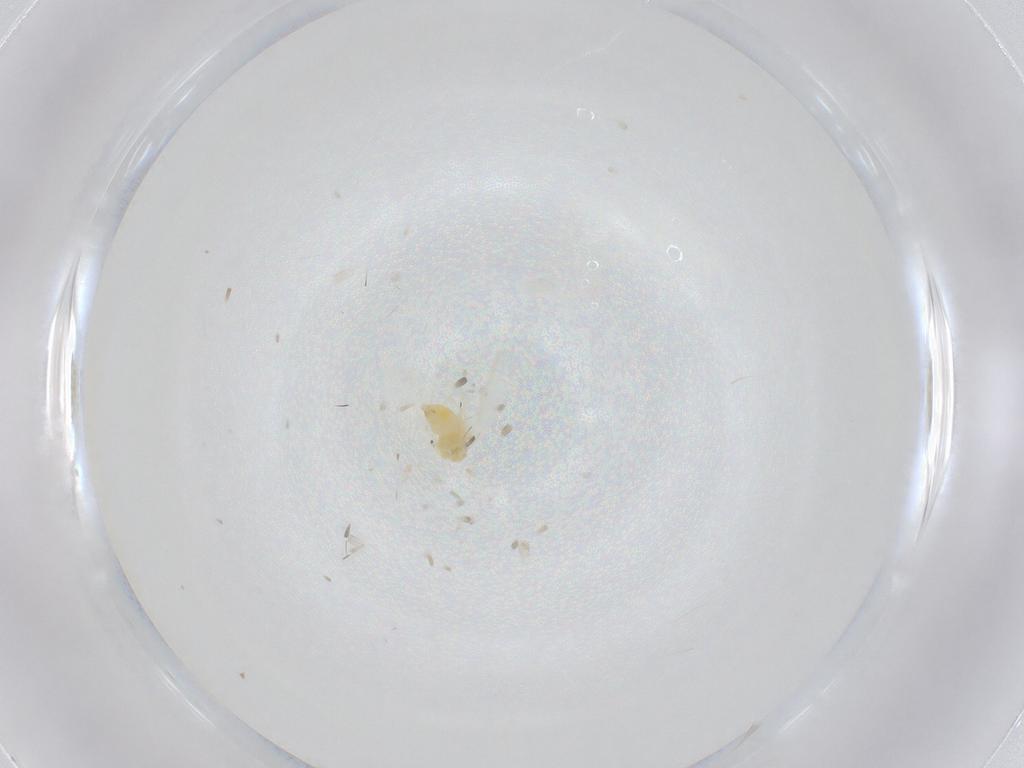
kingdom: Animalia
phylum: Arthropoda
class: Insecta
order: Hemiptera
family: Aleyrodidae
